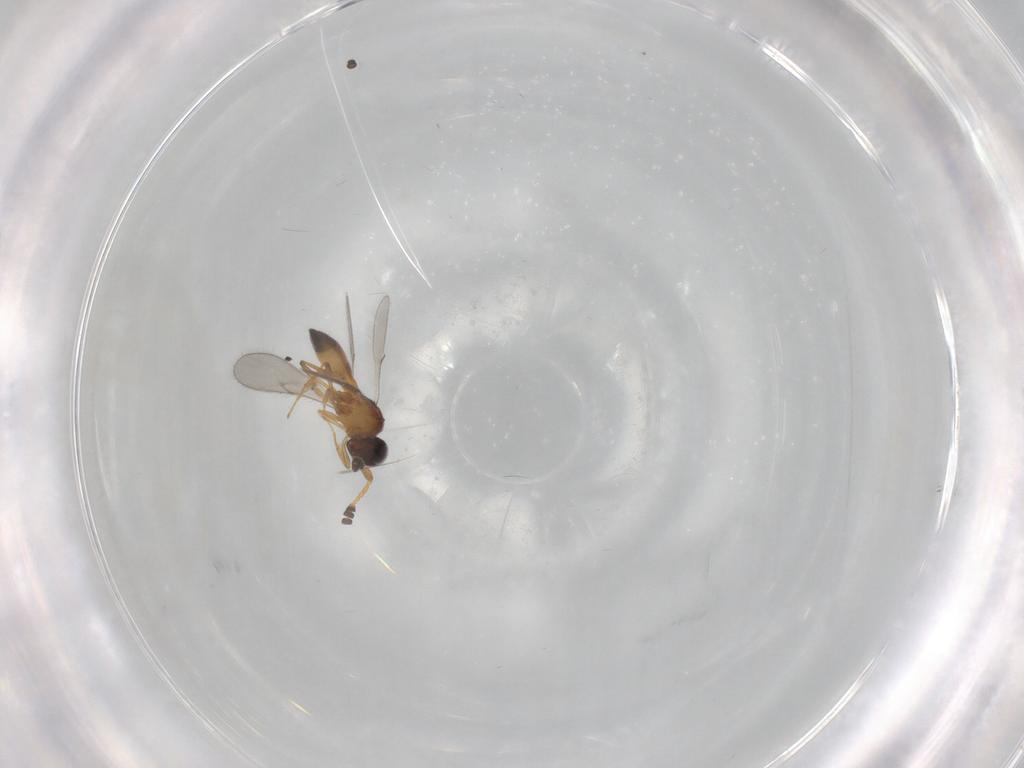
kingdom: Animalia
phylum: Arthropoda
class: Insecta
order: Hymenoptera
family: Scelionidae
